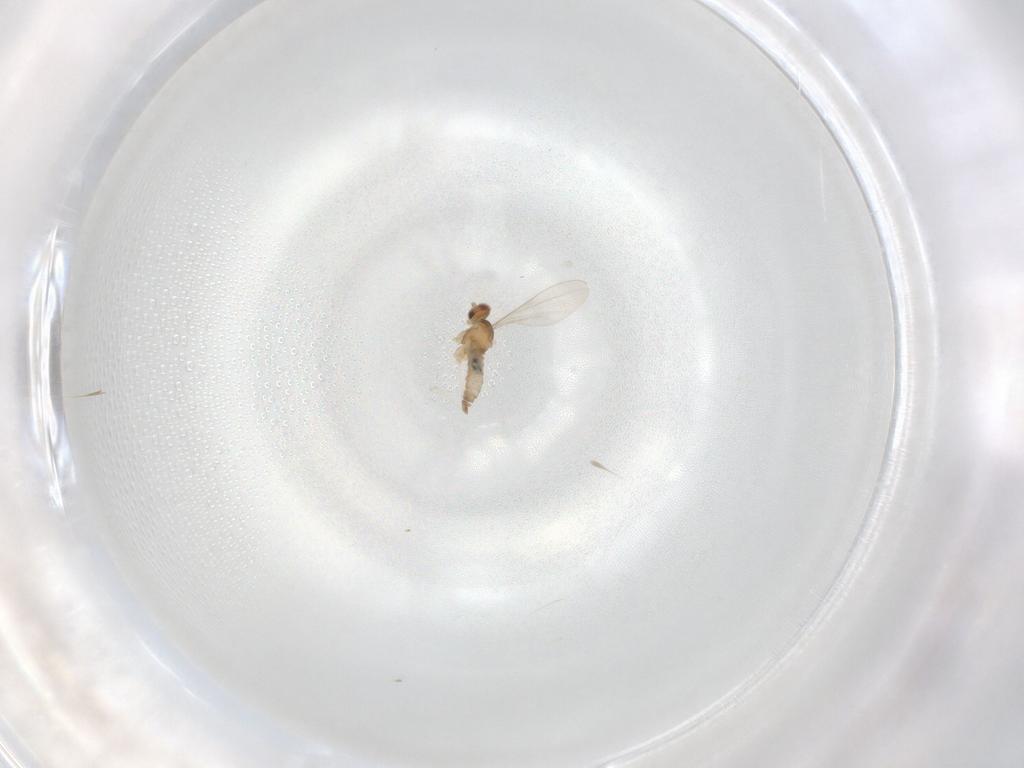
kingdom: Animalia
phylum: Arthropoda
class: Insecta
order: Diptera
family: Cecidomyiidae
